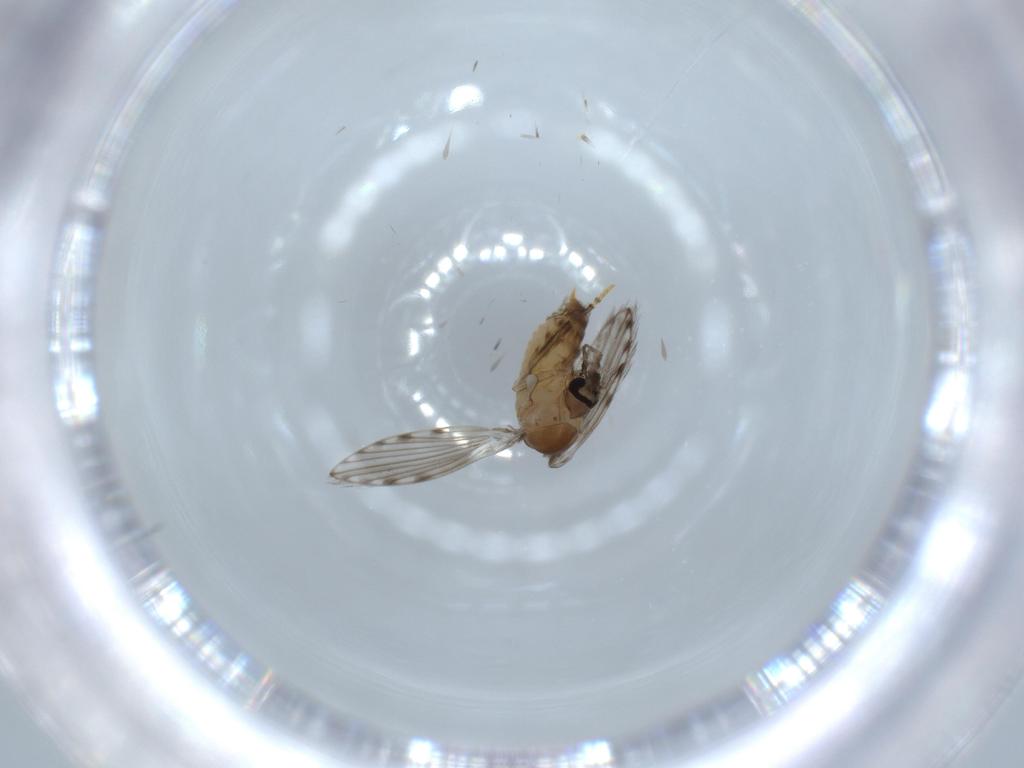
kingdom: Animalia
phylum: Arthropoda
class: Insecta
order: Diptera
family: Psychodidae
